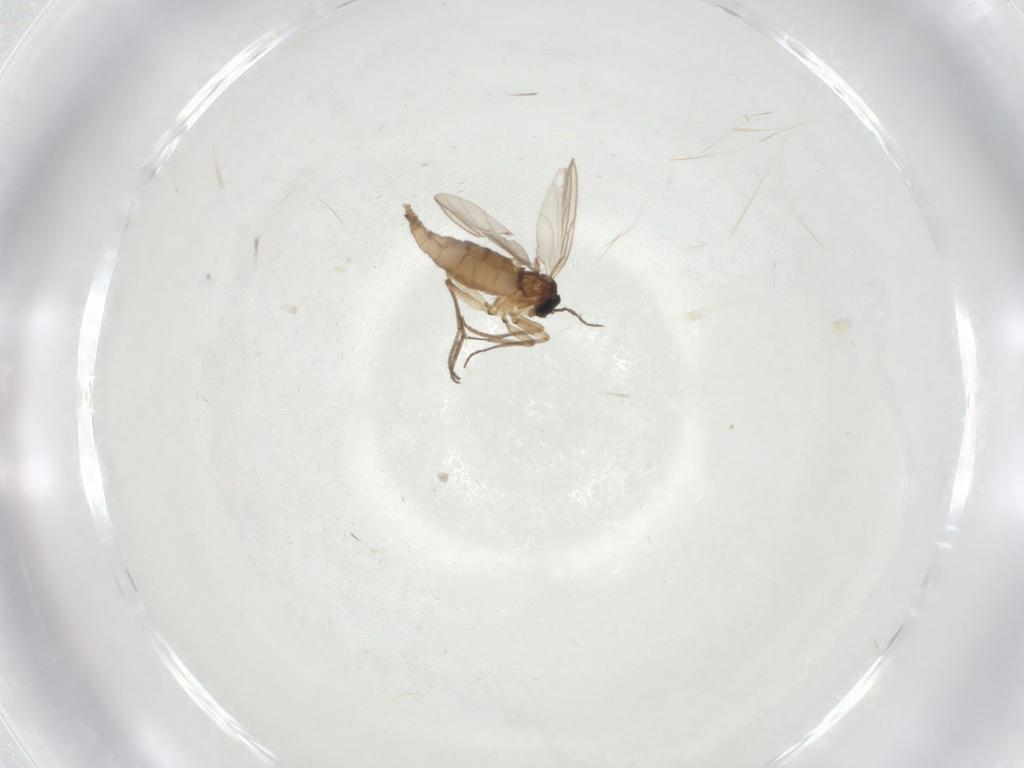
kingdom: Animalia
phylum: Arthropoda
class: Insecta
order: Diptera
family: Sciaridae
